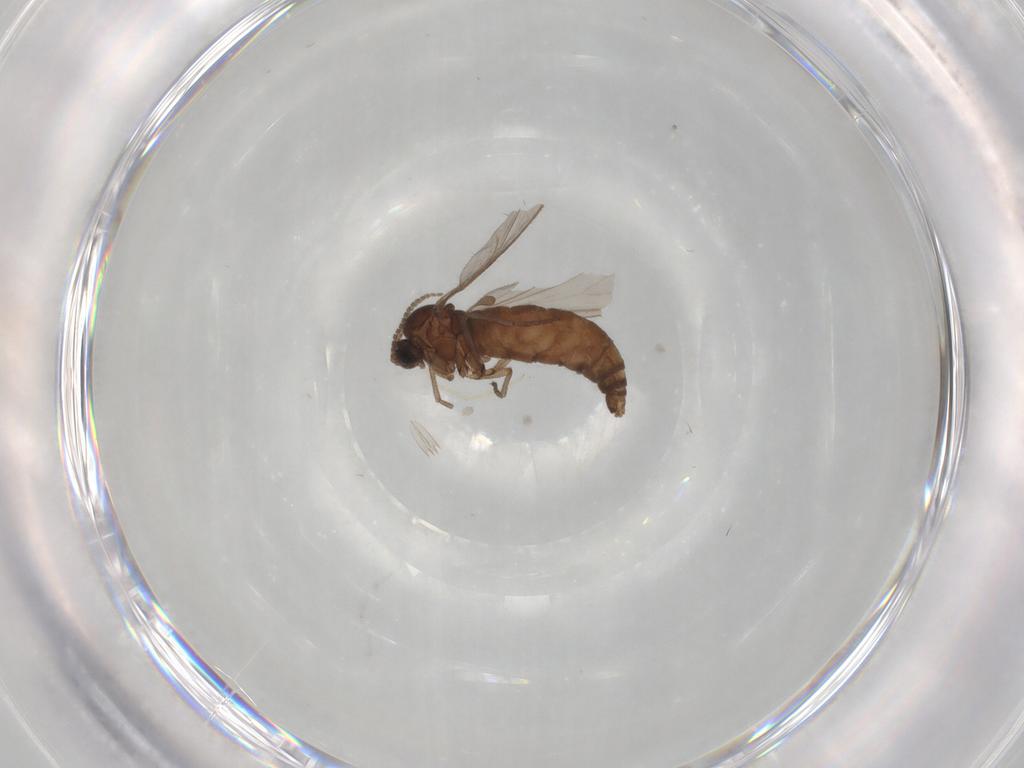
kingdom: Animalia
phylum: Arthropoda
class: Insecta
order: Diptera
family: Sciaridae
